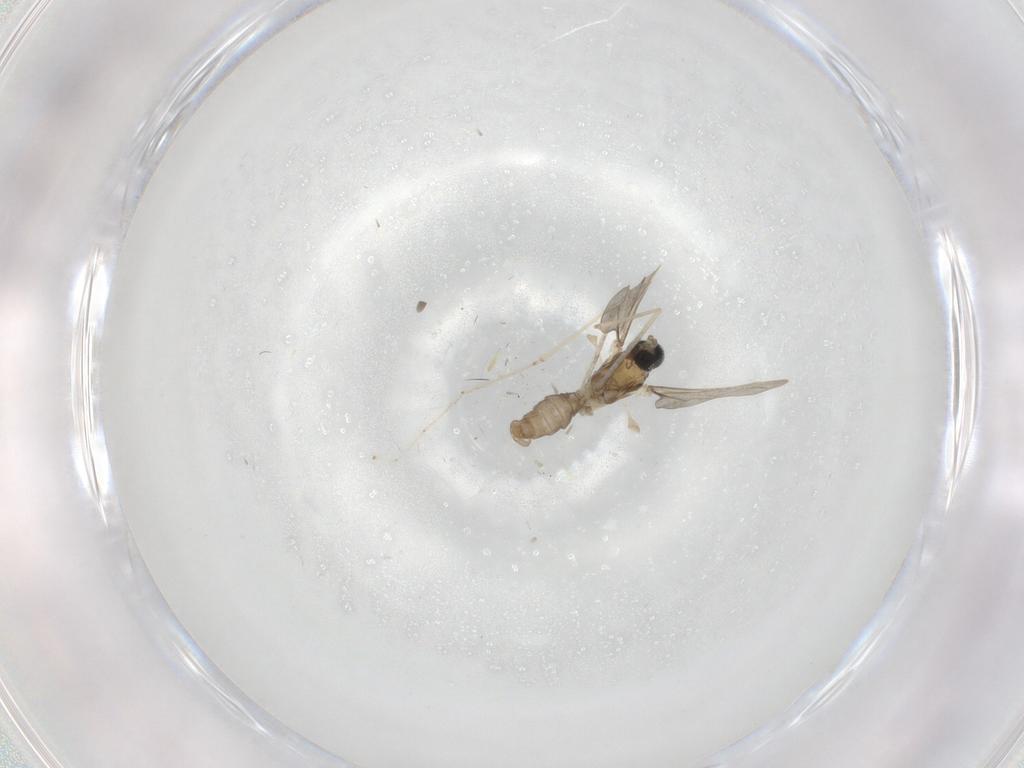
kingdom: Animalia
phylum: Arthropoda
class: Insecta
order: Diptera
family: Cecidomyiidae
